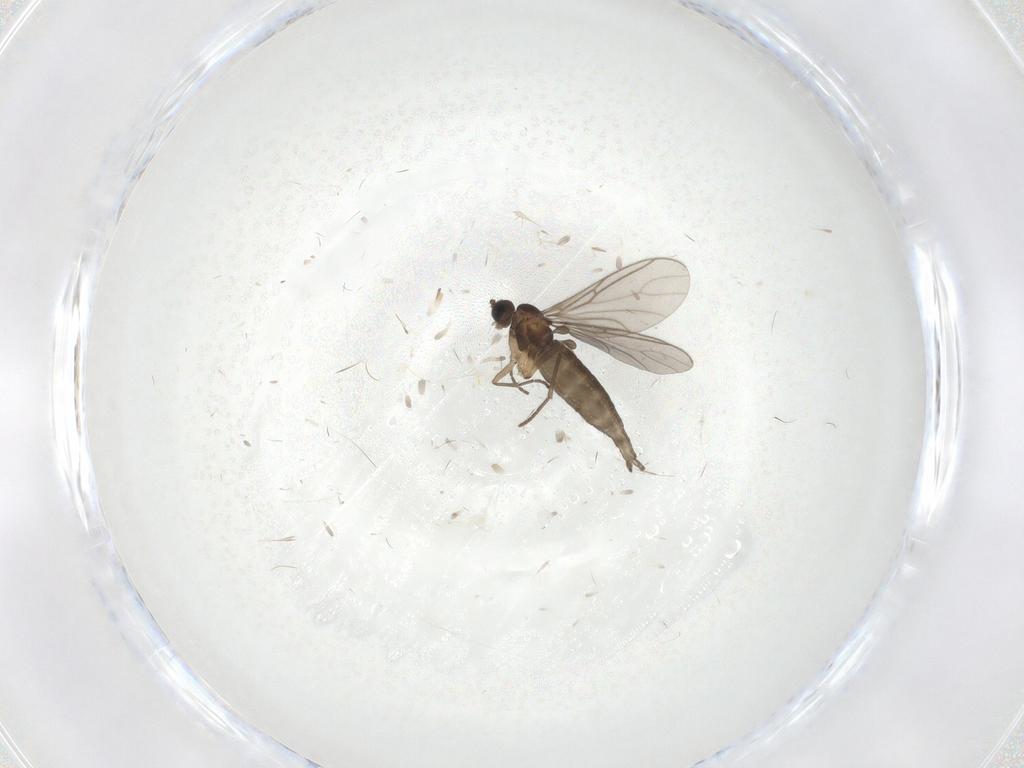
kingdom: Animalia
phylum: Arthropoda
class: Insecta
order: Diptera
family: Sciaridae
